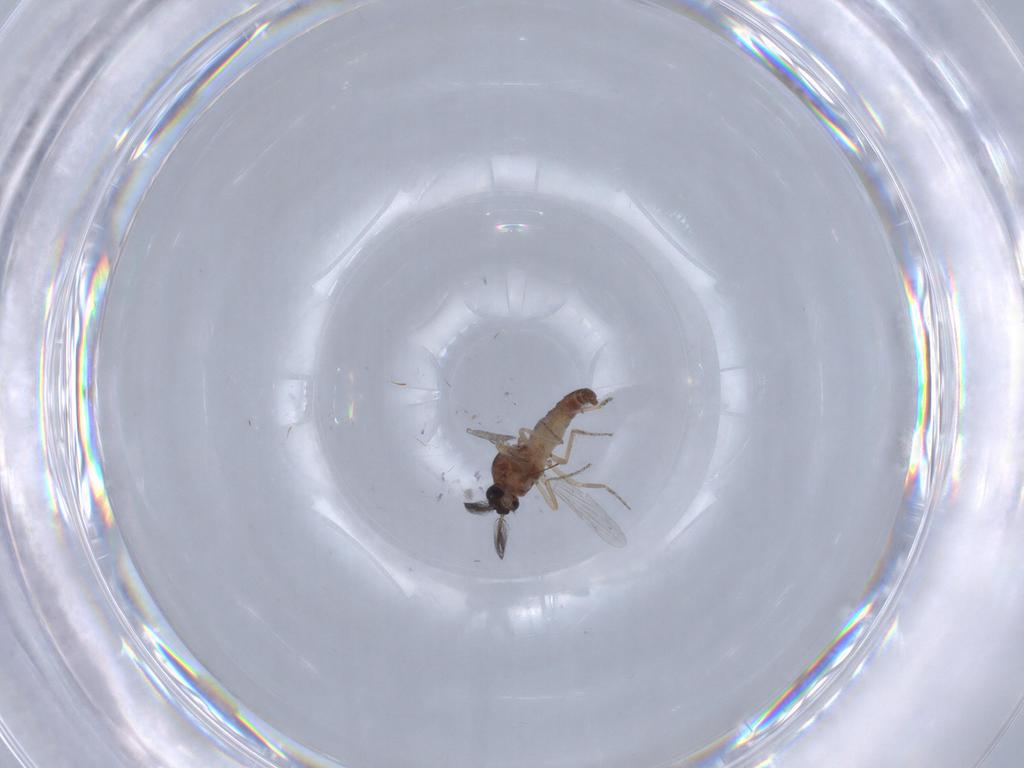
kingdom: Animalia
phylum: Arthropoda
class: Insecta
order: Diptera
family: Ceratopogonidae
